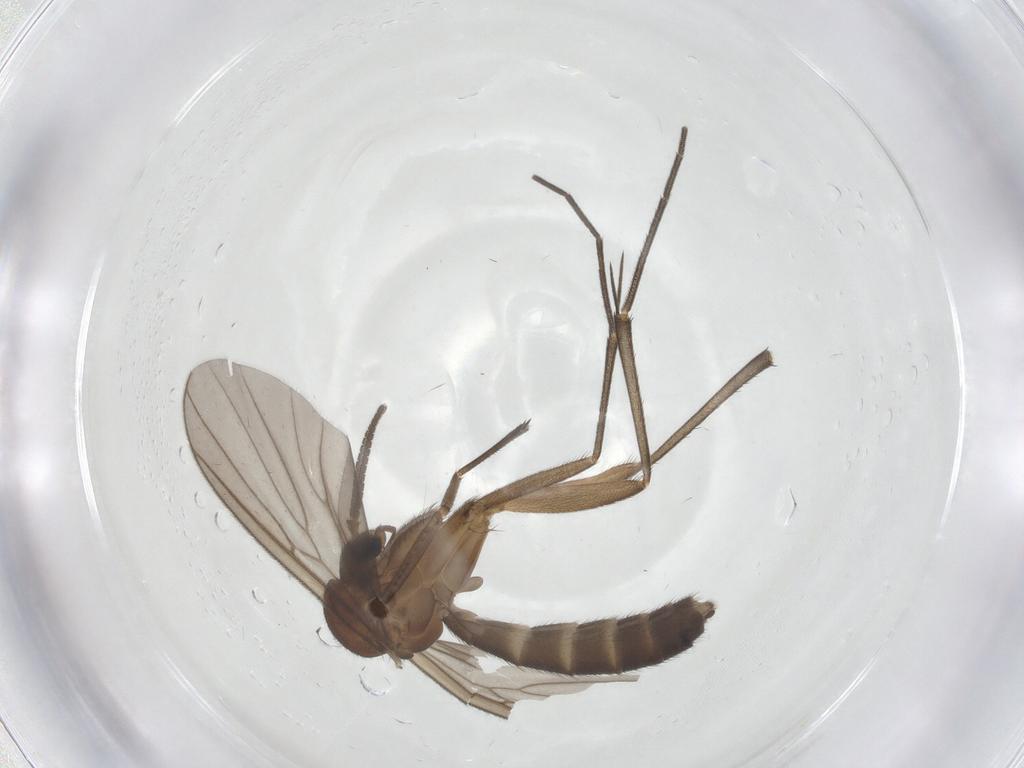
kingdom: Animalia
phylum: Arthropoda
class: Insecta
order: Diptera
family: Mycetophilidae
